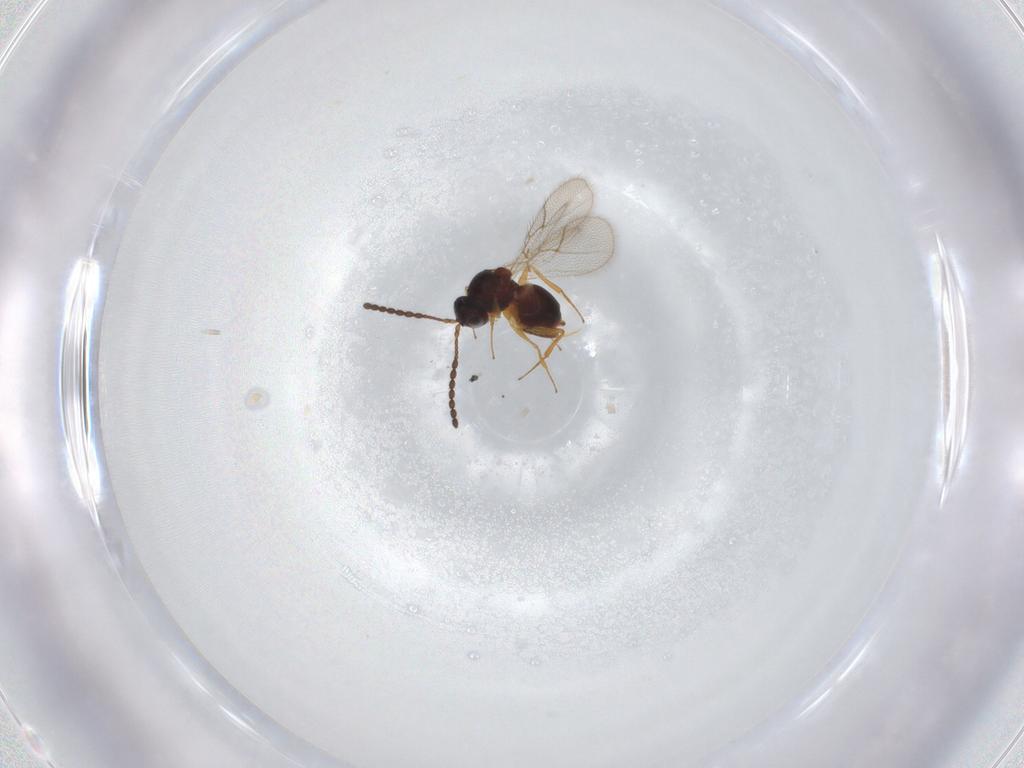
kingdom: Animalia
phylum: Arthropoda
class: Insecta
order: Hymenoptera
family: Figitidae
